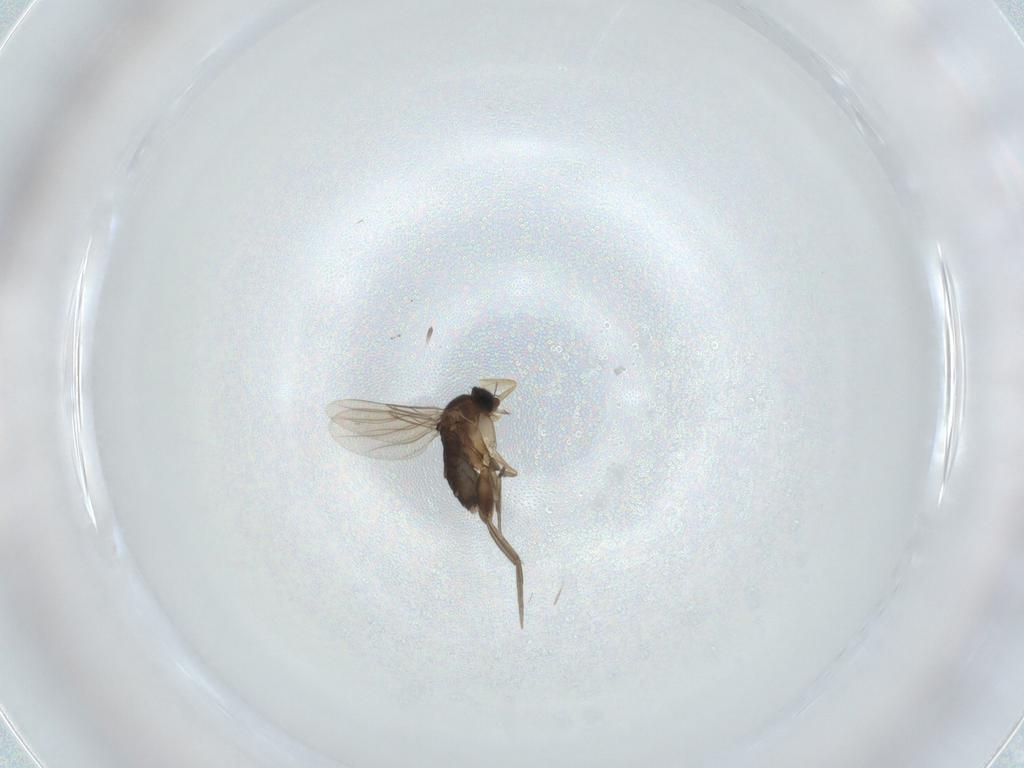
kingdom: Animalia
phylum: Arthropoda
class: Insecta
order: Diptera
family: Phoridae
